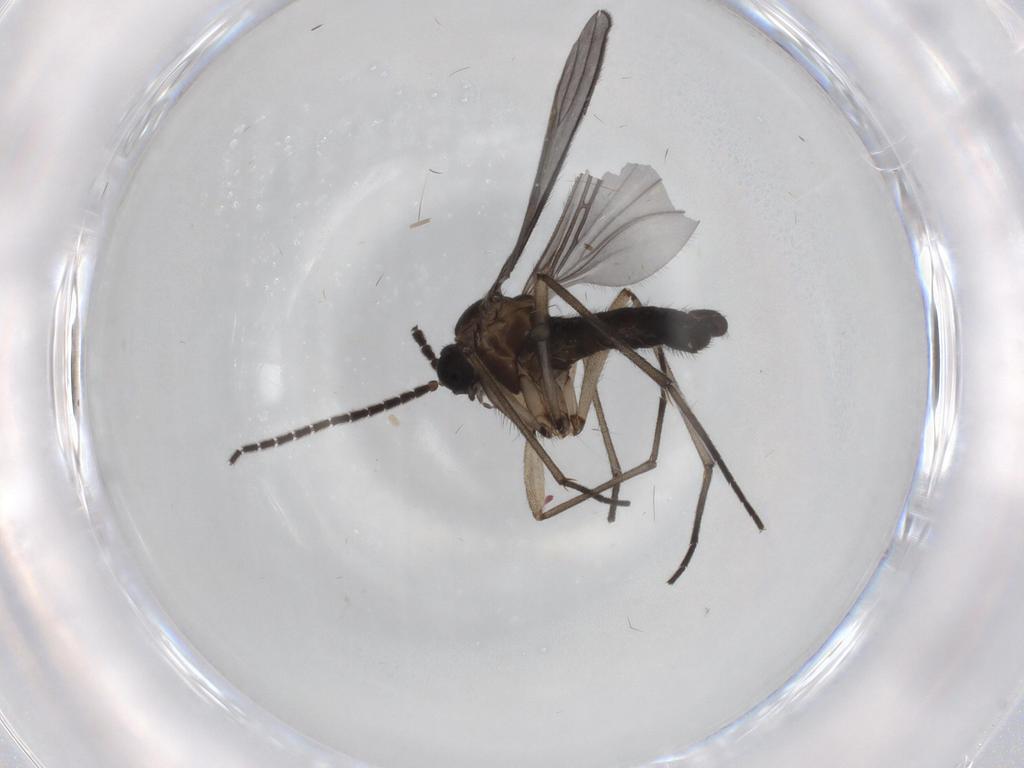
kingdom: Animalia
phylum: Arthropoda
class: Insecta
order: Diptera
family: Sciaridae
